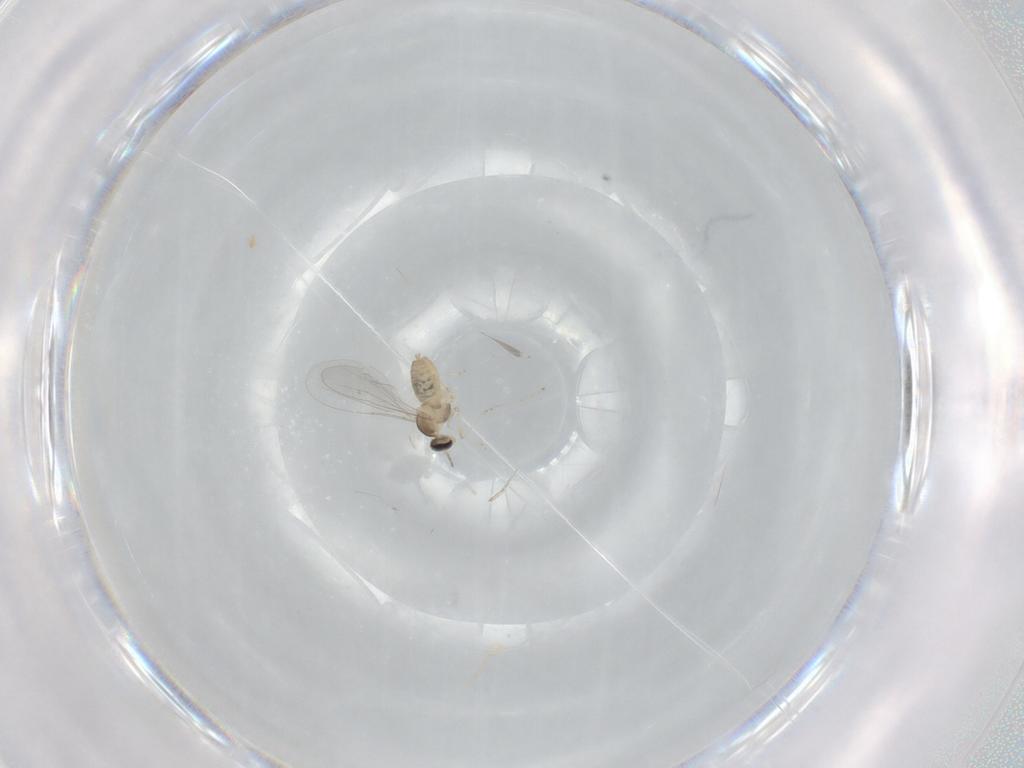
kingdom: Animalia
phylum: Arthropoda
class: Insecta
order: Diptera
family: Cecidomyiidae
